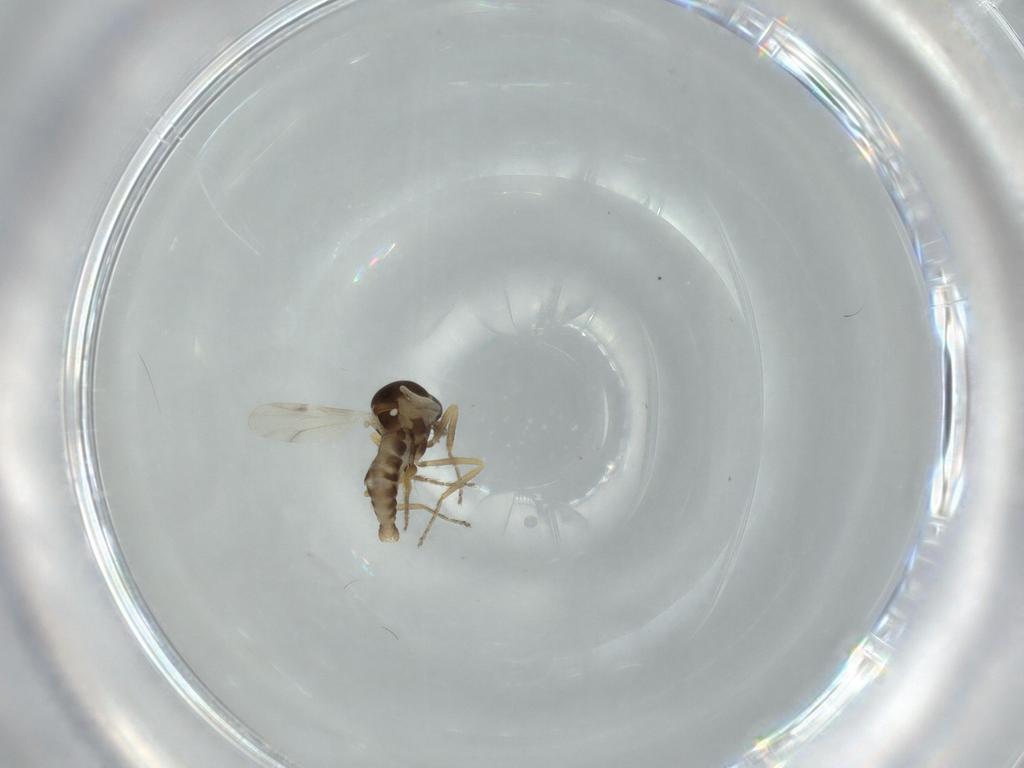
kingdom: Animalia
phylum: Arthropoda
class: Insecta
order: Diptera
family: Ceratopogonidae
